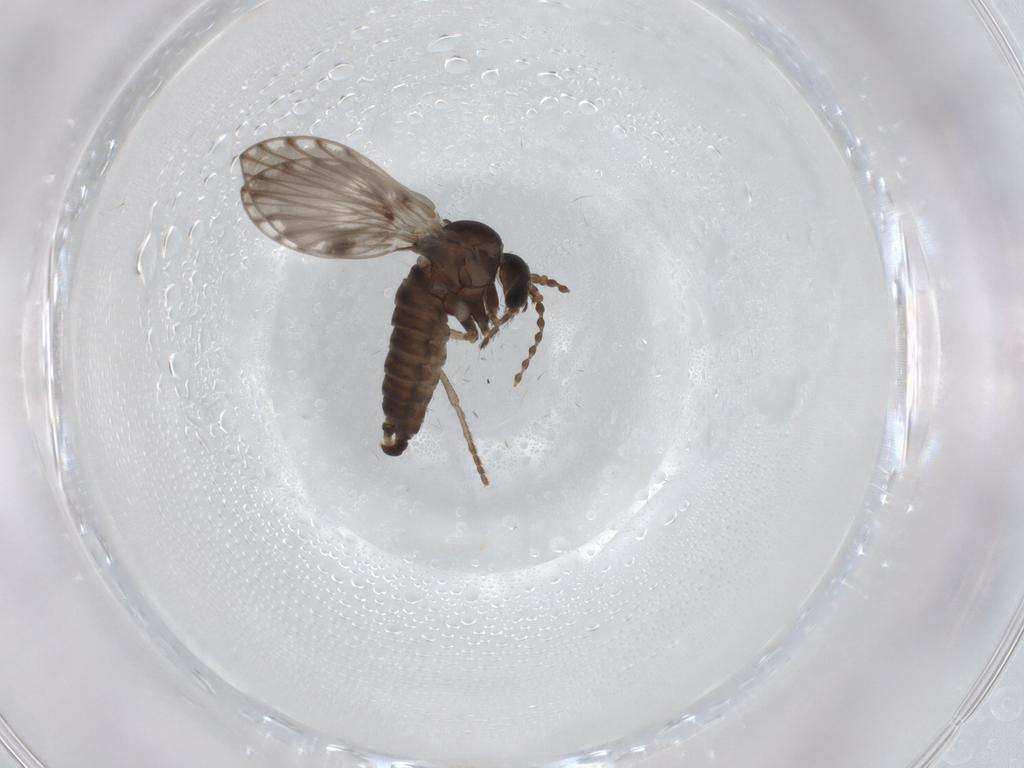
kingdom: Animalia
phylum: Arthropoda
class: Insecta
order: Diptera
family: Psychodidae
